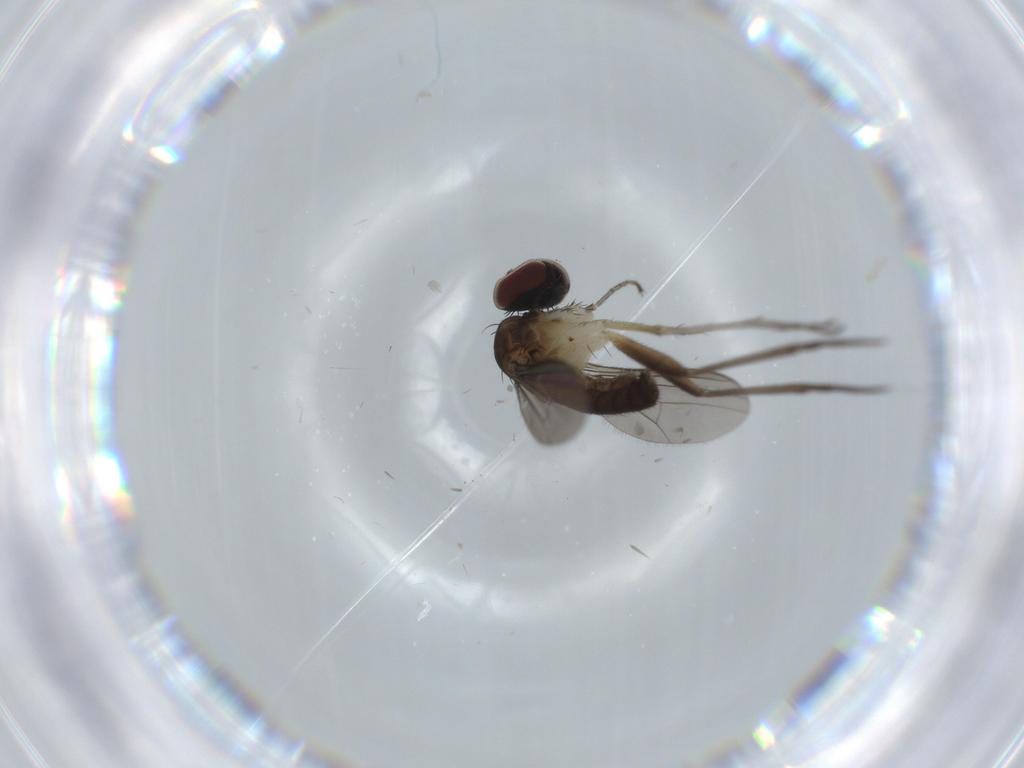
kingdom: Animalia
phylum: Arthropoda
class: Insecta
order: Diptera
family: Dolichopodidae
